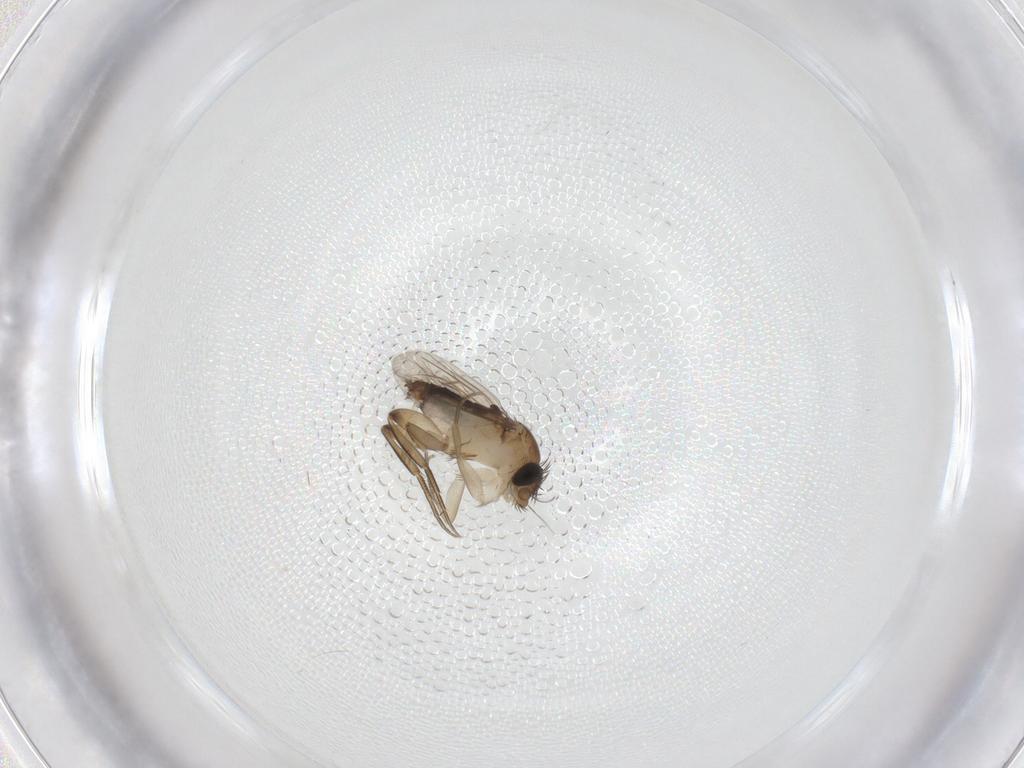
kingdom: Animalia
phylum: Arthropoda
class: Insecta
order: Diptera
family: Phoridae
